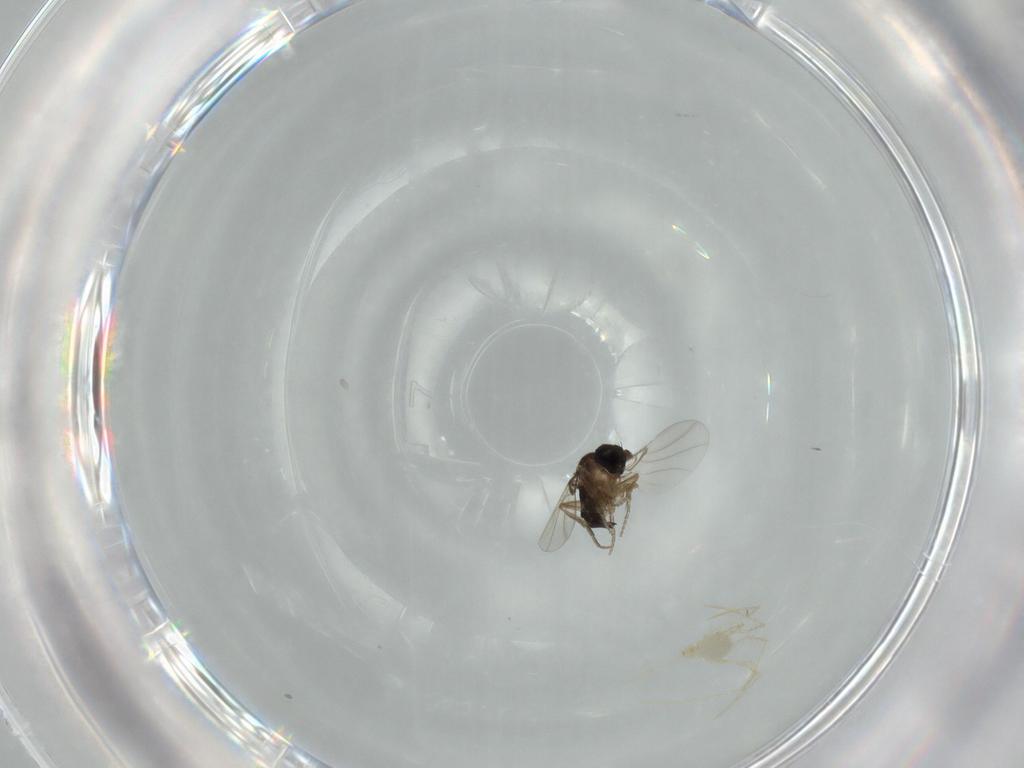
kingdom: Animalia
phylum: Arthropoda
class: Insecta
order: Diptera
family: Phoridae
